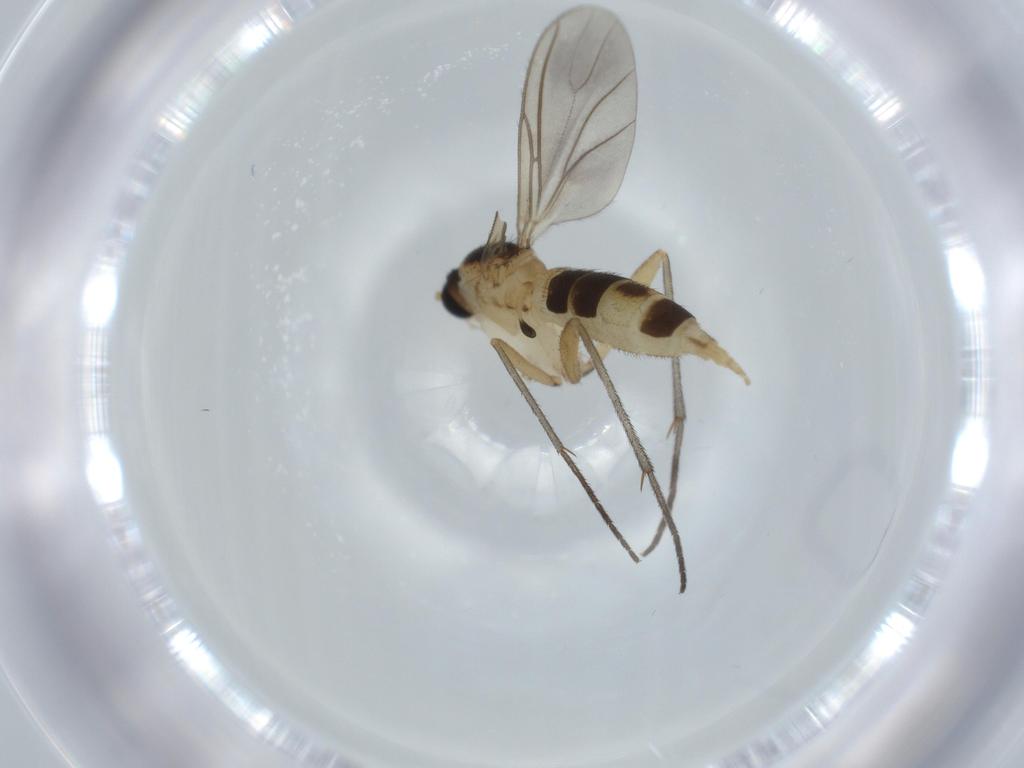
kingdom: Animalia
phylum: Arthropoda
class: Insecta
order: Diptera
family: Sciaridae
